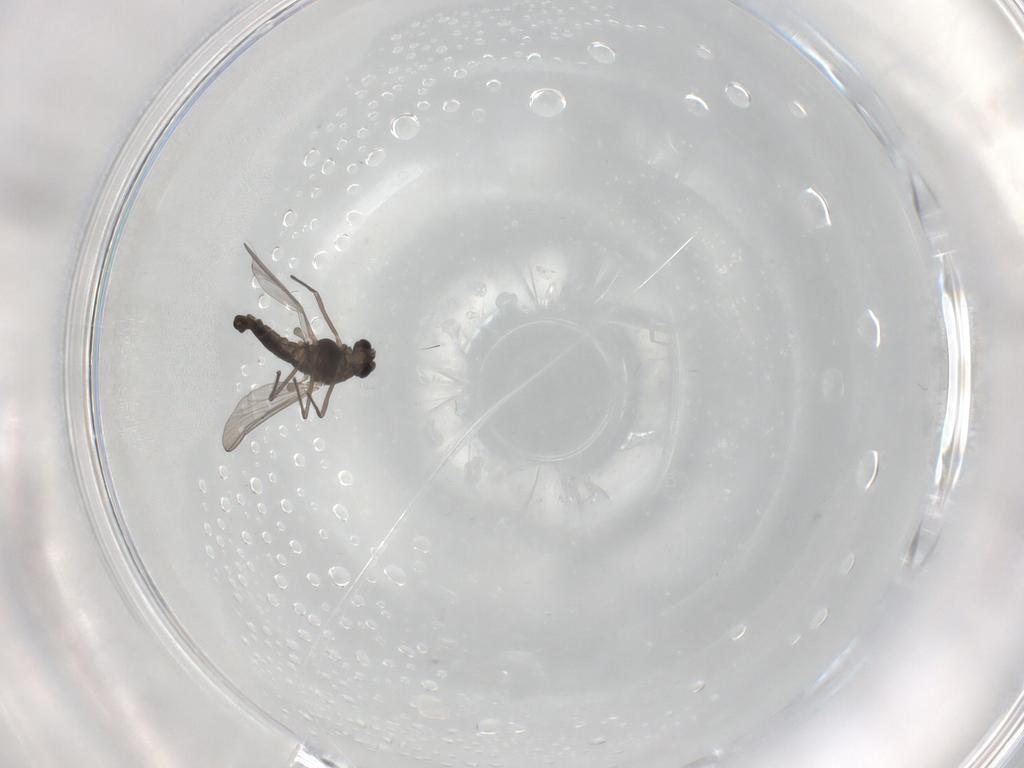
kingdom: Animalia
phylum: Arthropoda
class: Insecta
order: Diptera
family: Chironomidae
